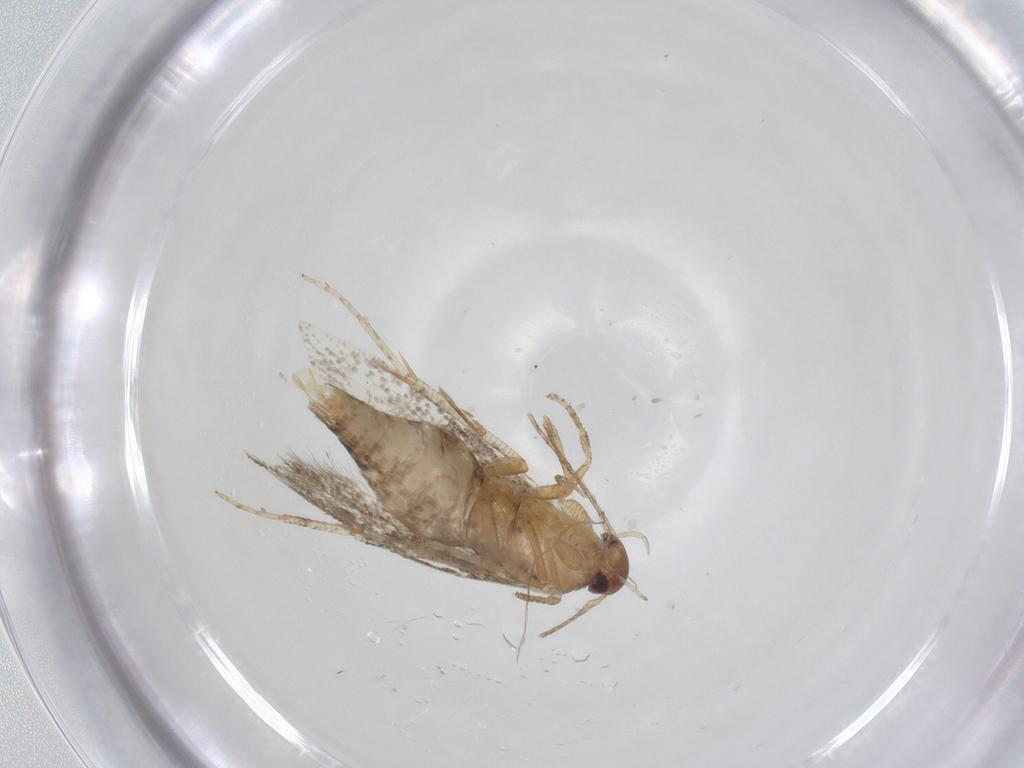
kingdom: Animalia
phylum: Arthropoda
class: Insecta
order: Lepidoptera
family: Momphidae
